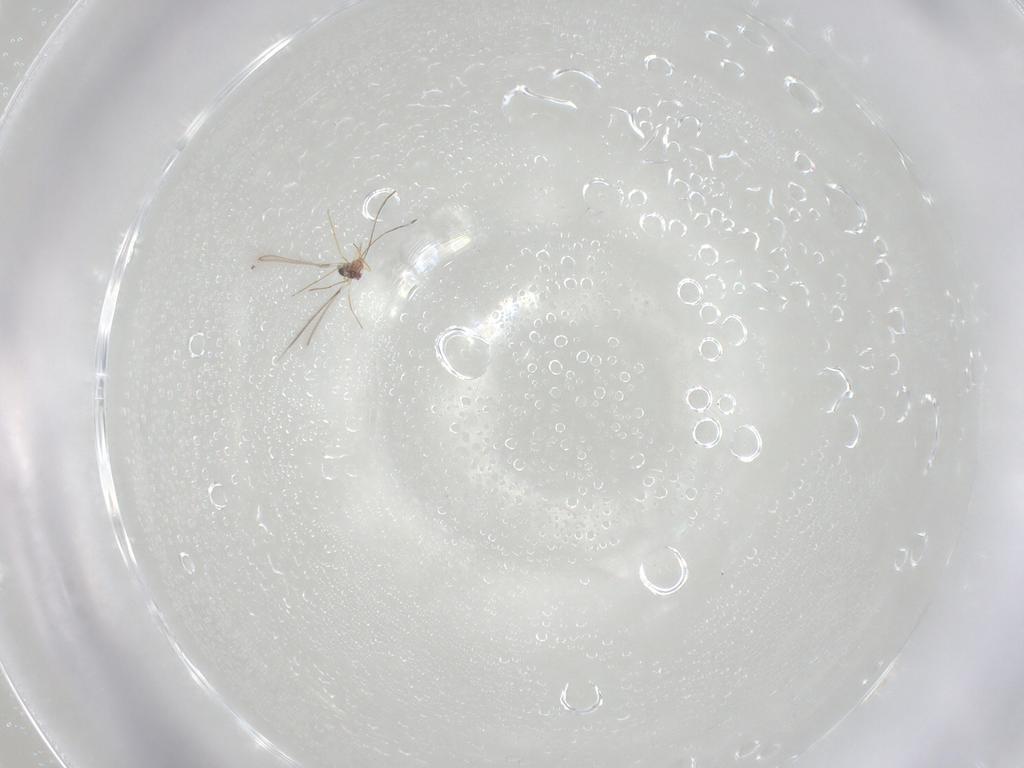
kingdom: Animalia
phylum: Arthropoda
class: Insecta
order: Hymenoptera
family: Mymaridae
